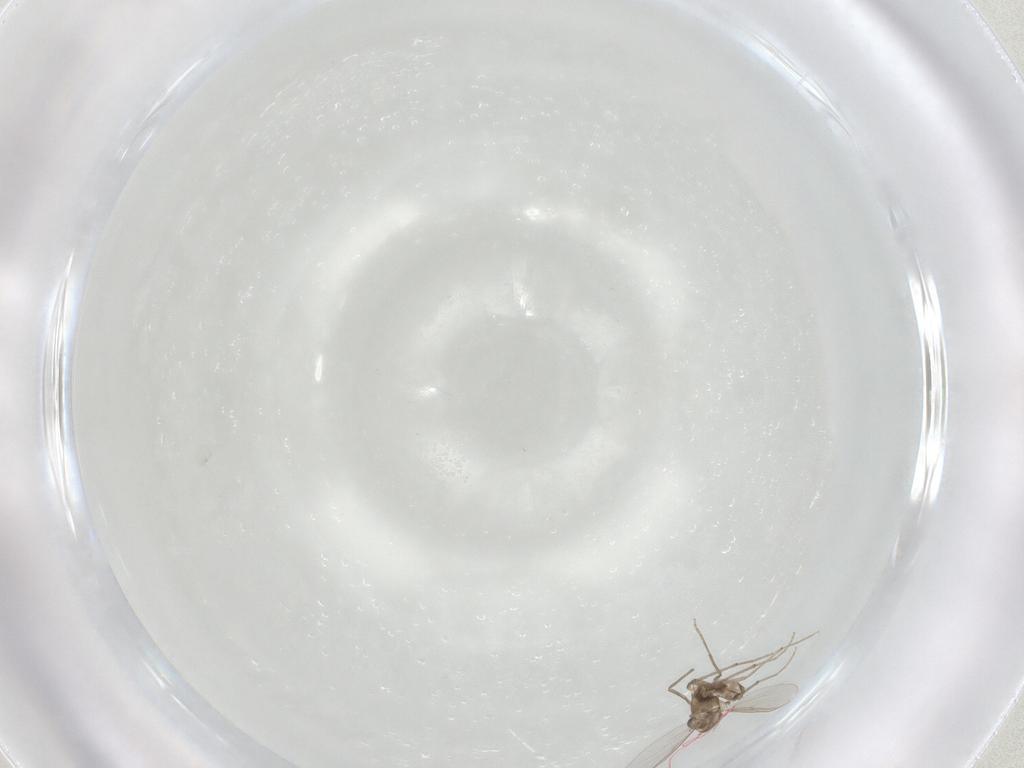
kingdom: Animalia
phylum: Arthropoda
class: Insecta
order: Diptera
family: Chironomidae
